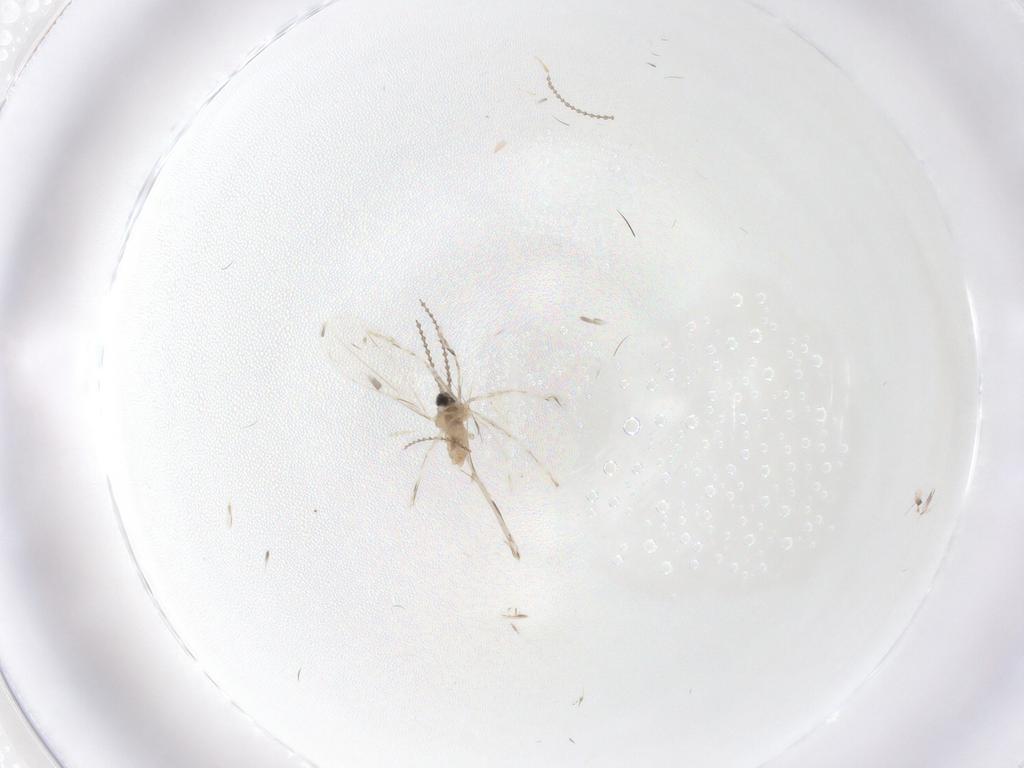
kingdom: Animalia
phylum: Arthropoda
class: Insecta
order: Diptera
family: Cecidomyiidae
